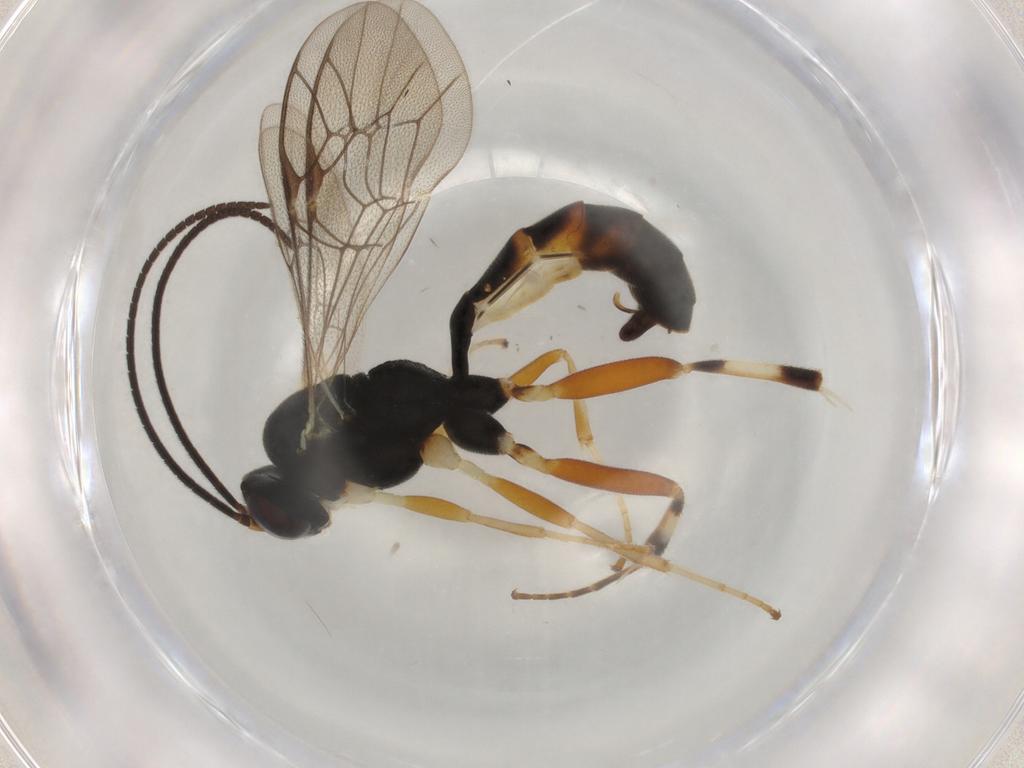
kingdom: Animalia
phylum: Arthropoda
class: Insecta
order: Hymenoptera
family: Ichneumonidae
